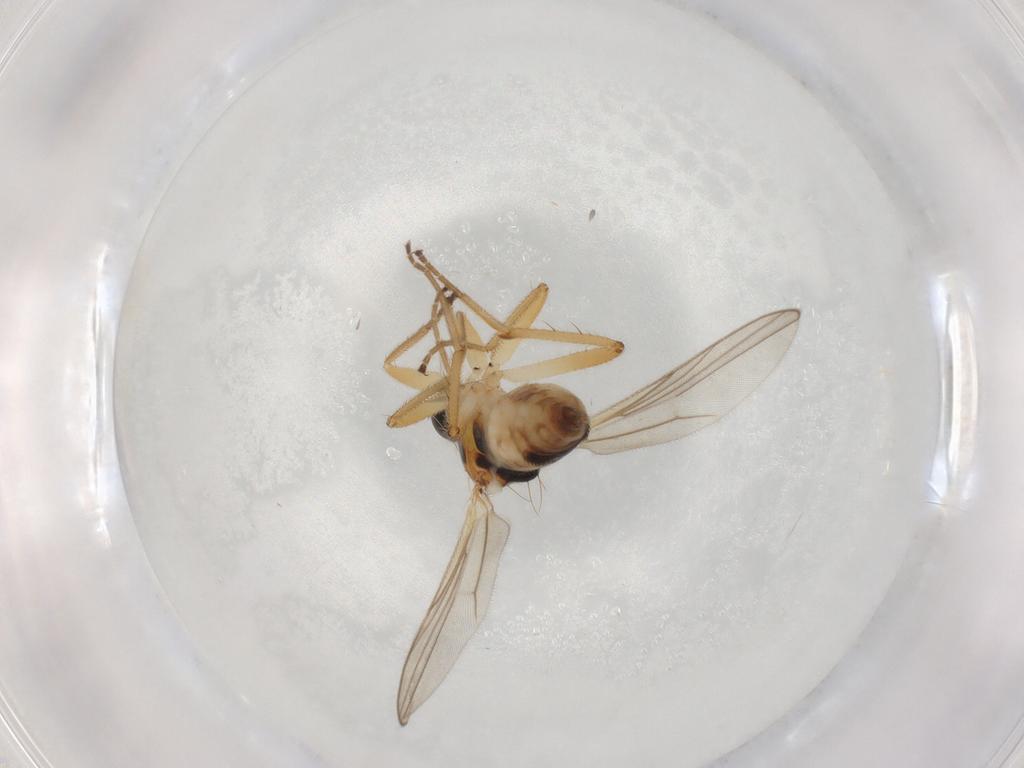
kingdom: Animalia
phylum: Arthropoda
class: Insecta
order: Diptera
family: Hybotidae
